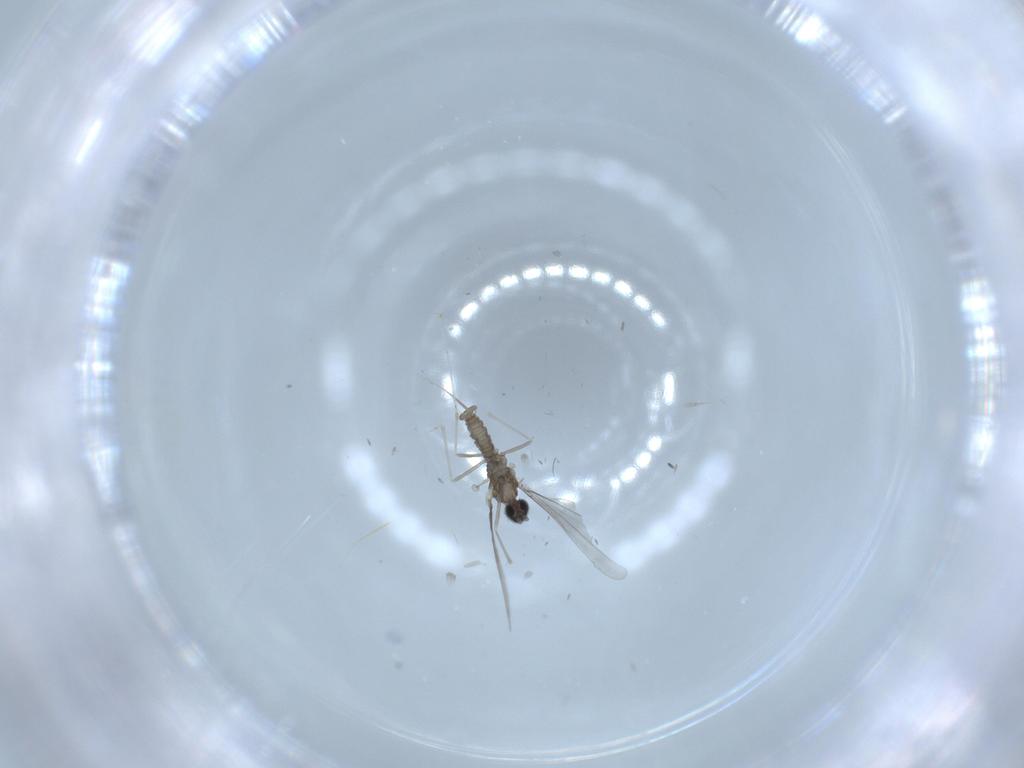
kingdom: Animalia
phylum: Arthropoda
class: Insecta
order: Diptera
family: Cecidomyiidae
